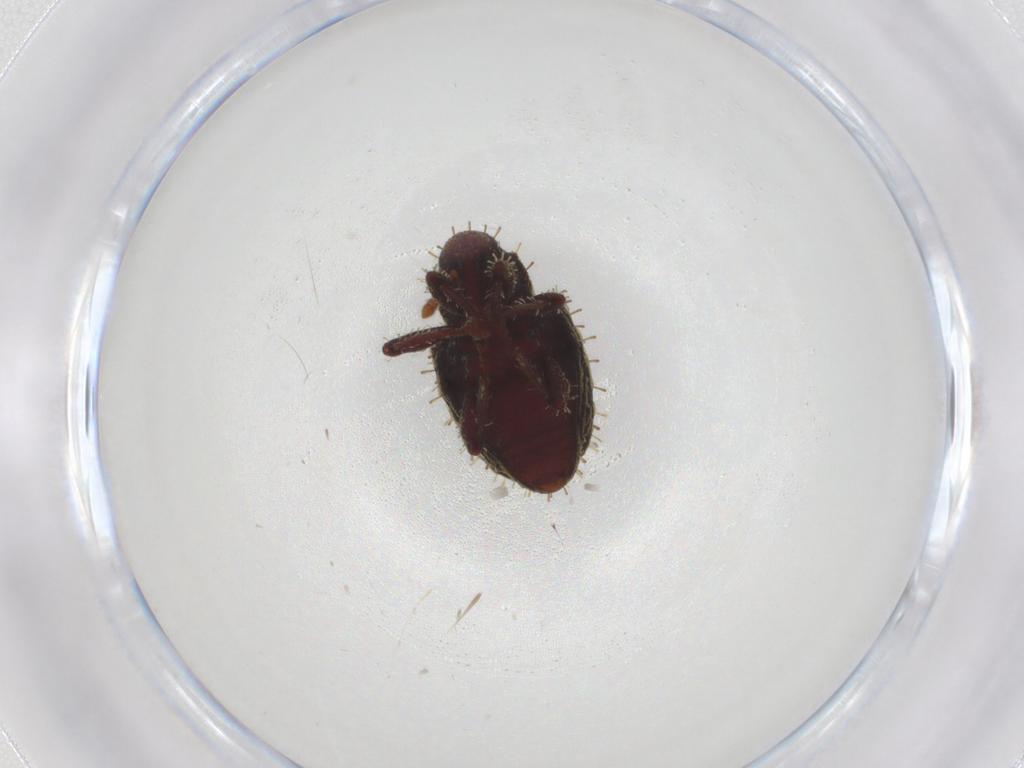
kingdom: Animalia
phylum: Arthropoda
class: Insecta
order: Coleoptera
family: Curculionidae
